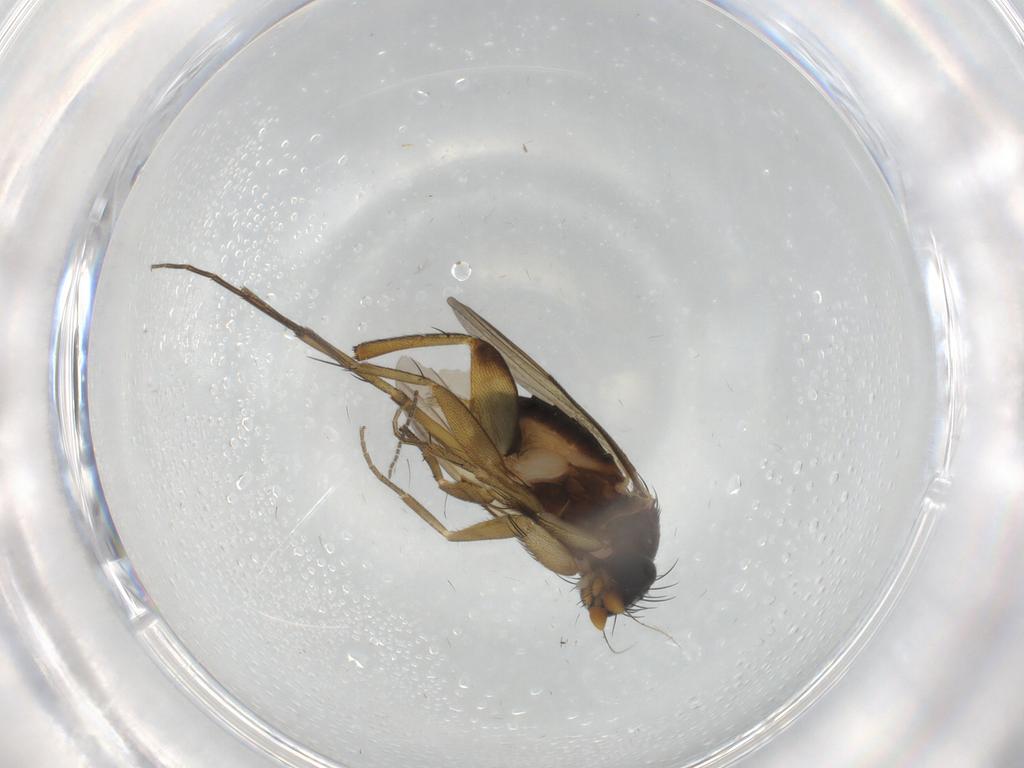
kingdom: Animalia
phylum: Arthropoda
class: Insecta
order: Diptera
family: Phoridae
